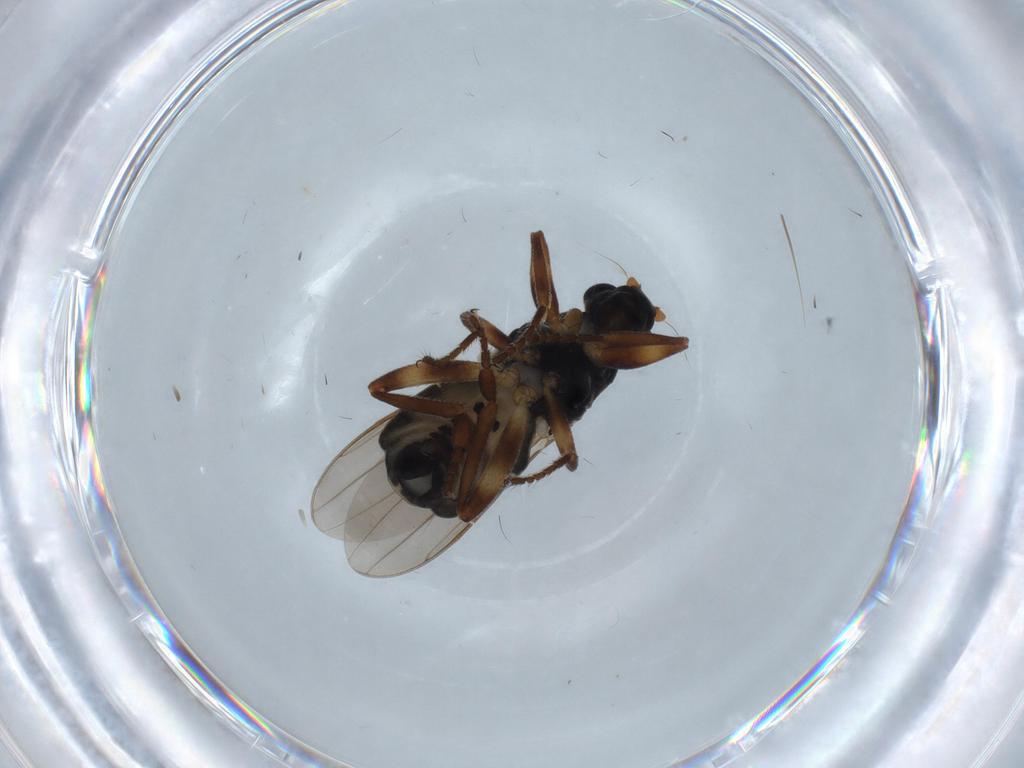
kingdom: Animalia
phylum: Arthropoda
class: Insecta
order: Diptera
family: Sphaeroceridae
